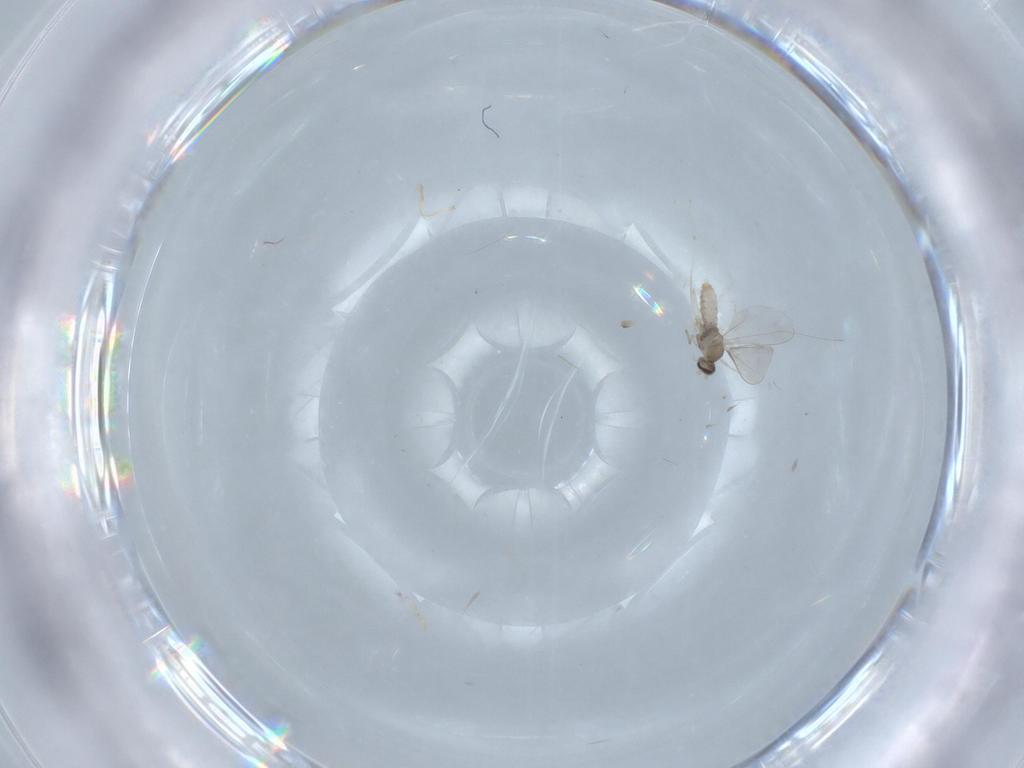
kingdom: Animalia
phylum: Arthropoda
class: Insecta
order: Diptera
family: Cecidomyiidae
